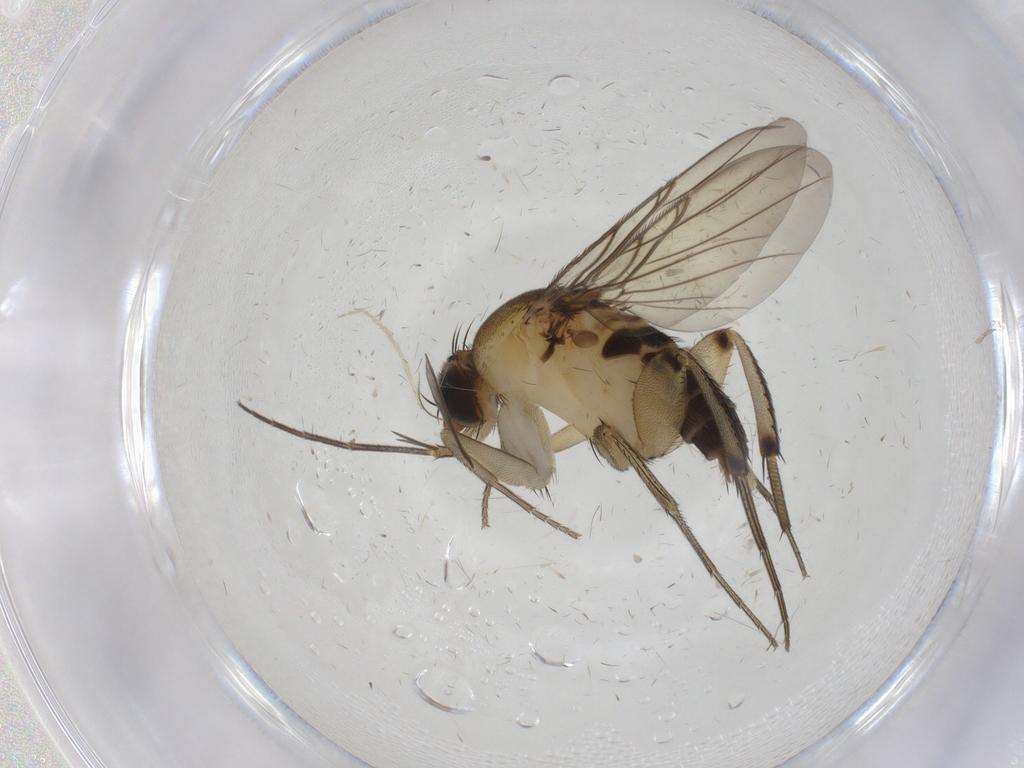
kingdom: Animalia
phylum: Arthropoda
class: Insecta
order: Diptera
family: Phoridae
